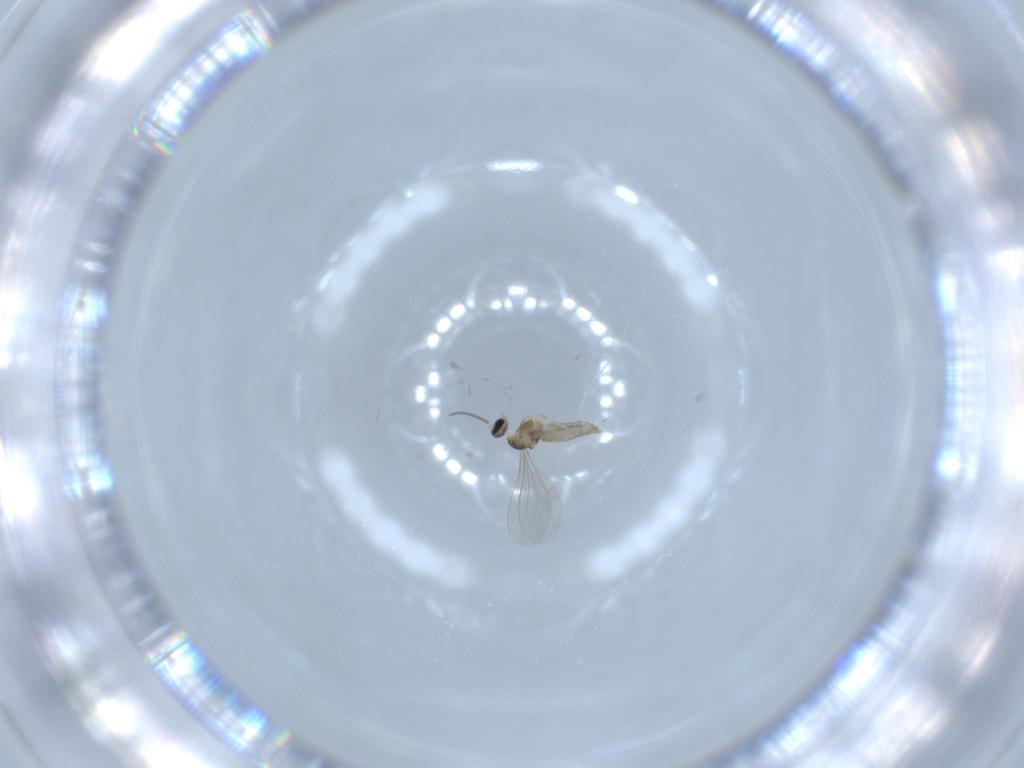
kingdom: Animalia
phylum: Arthropoda
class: Insecta
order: Diptera
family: Cecidomyiidae
